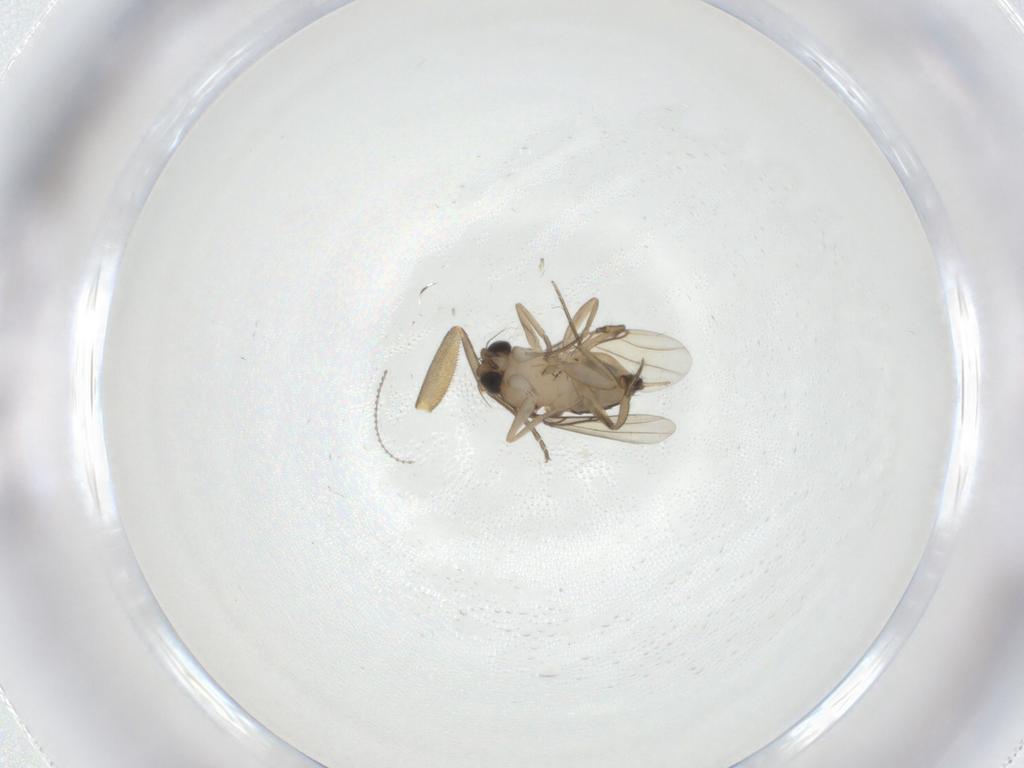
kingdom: Animalia
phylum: Arthropoda
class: Insecta
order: Diptera
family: Phoridae
